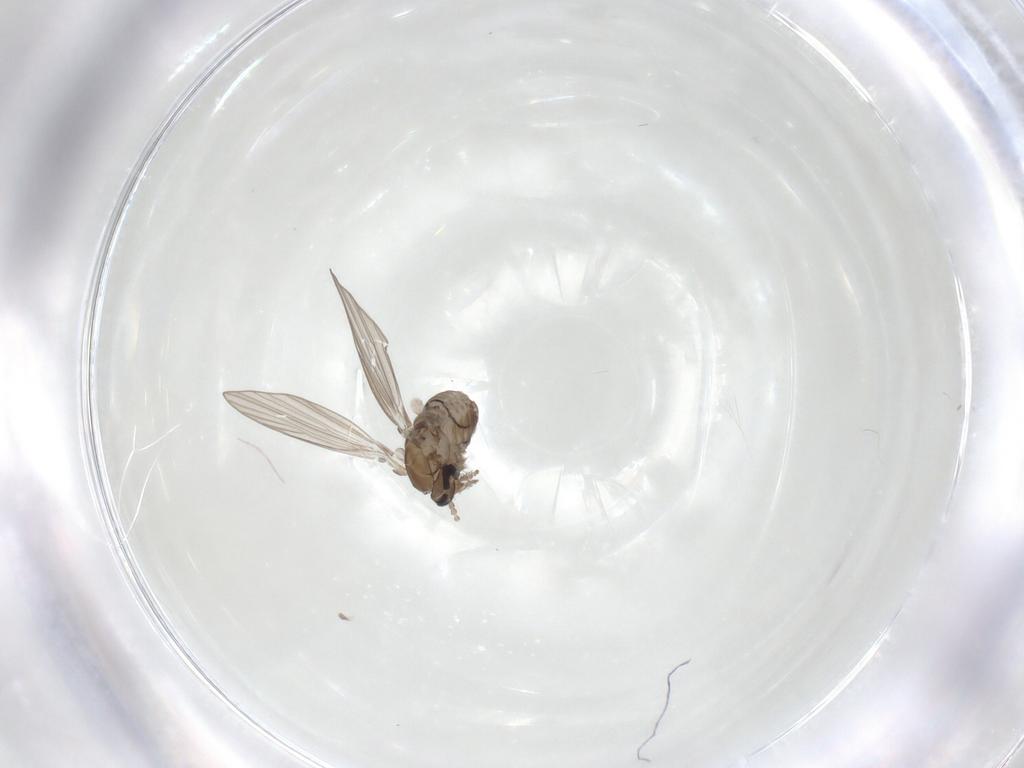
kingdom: Animalia
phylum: Arthropoda
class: Insecta
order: Diptera
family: Psychodidae
